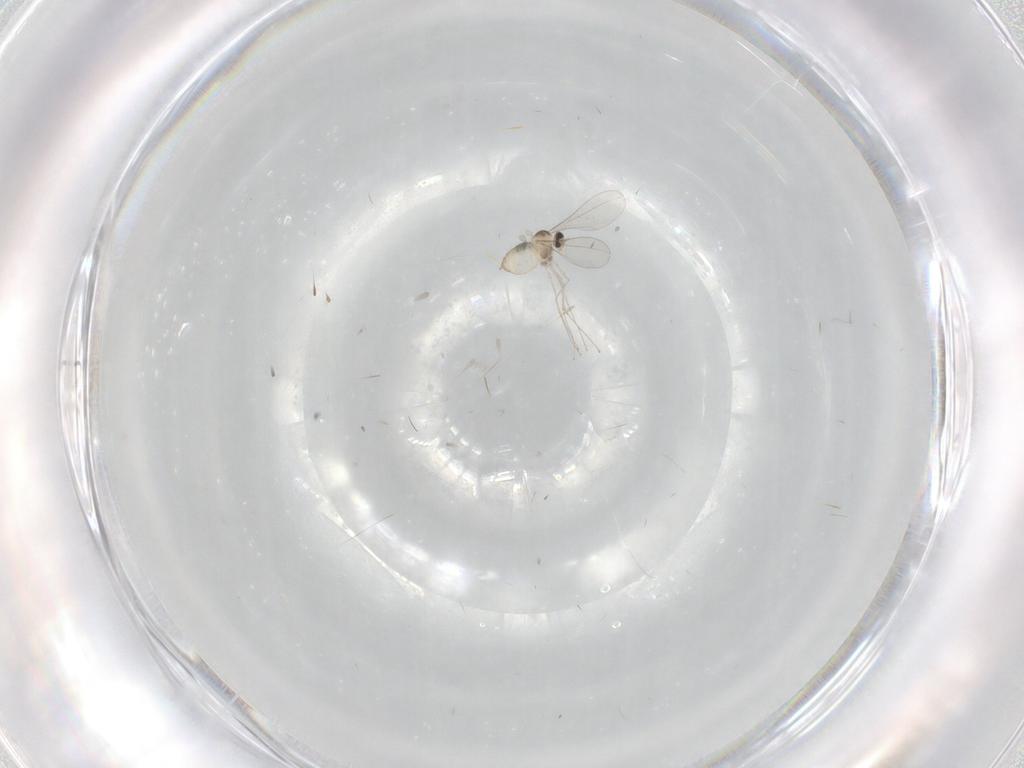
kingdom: Animalia
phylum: Arthropoda
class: Insecta
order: Diptera
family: Cecidomyiidae
